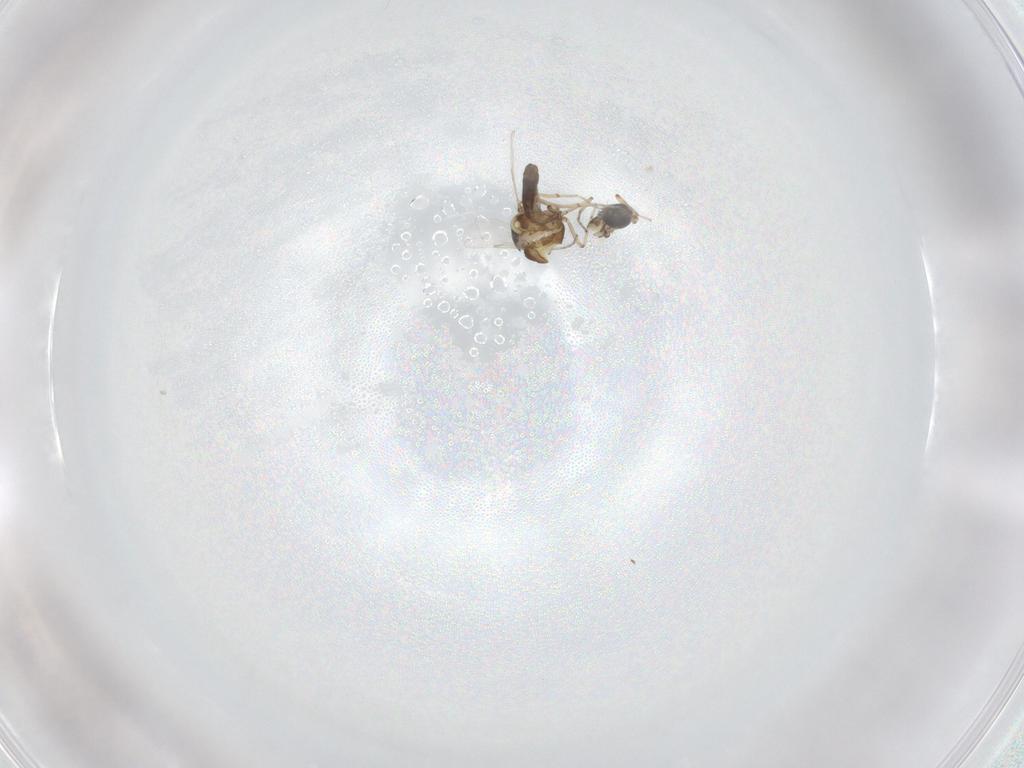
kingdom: Animalia
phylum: Arthropoda
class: Insecta
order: Diptera
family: Ceratopogonidae
